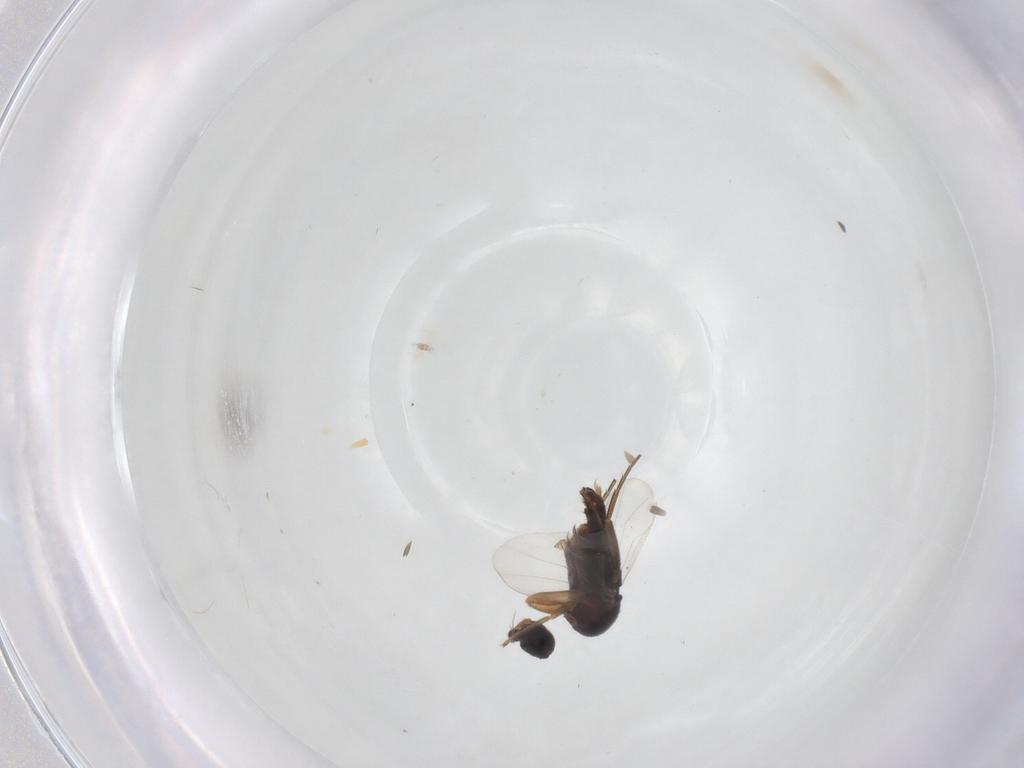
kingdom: Animalia
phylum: Arthropoda
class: Insecta
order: Diptera
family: Phoridae
